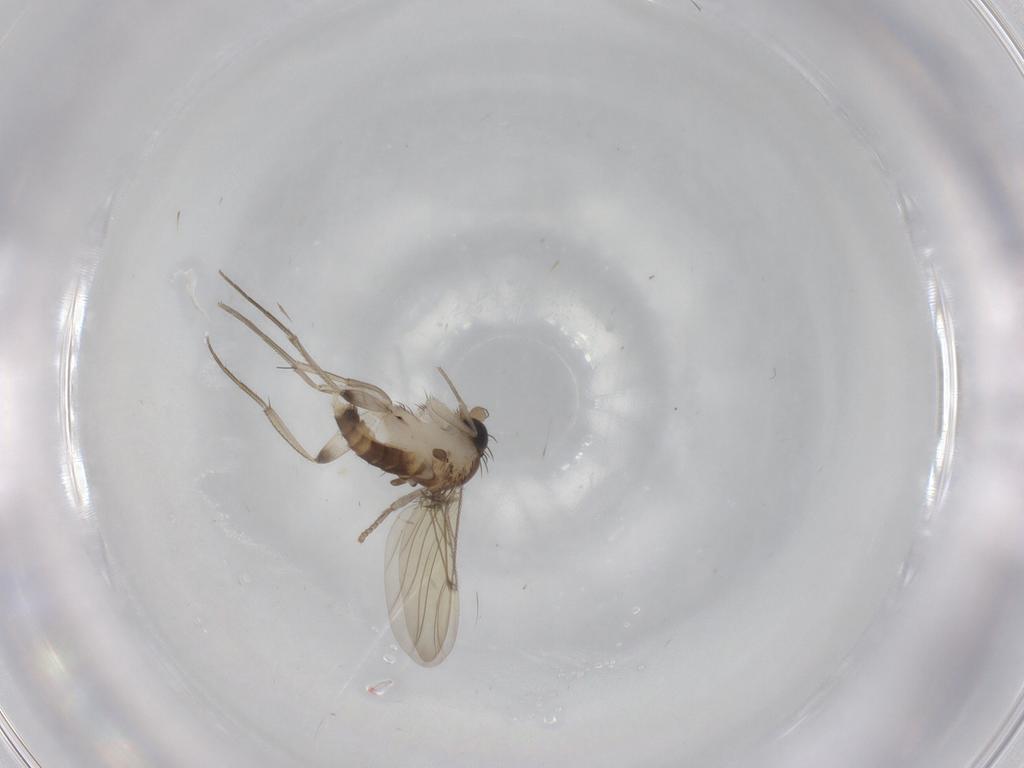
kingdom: Animalia
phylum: Arthropoda
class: Insecta
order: Diptera
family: Psychodidae
